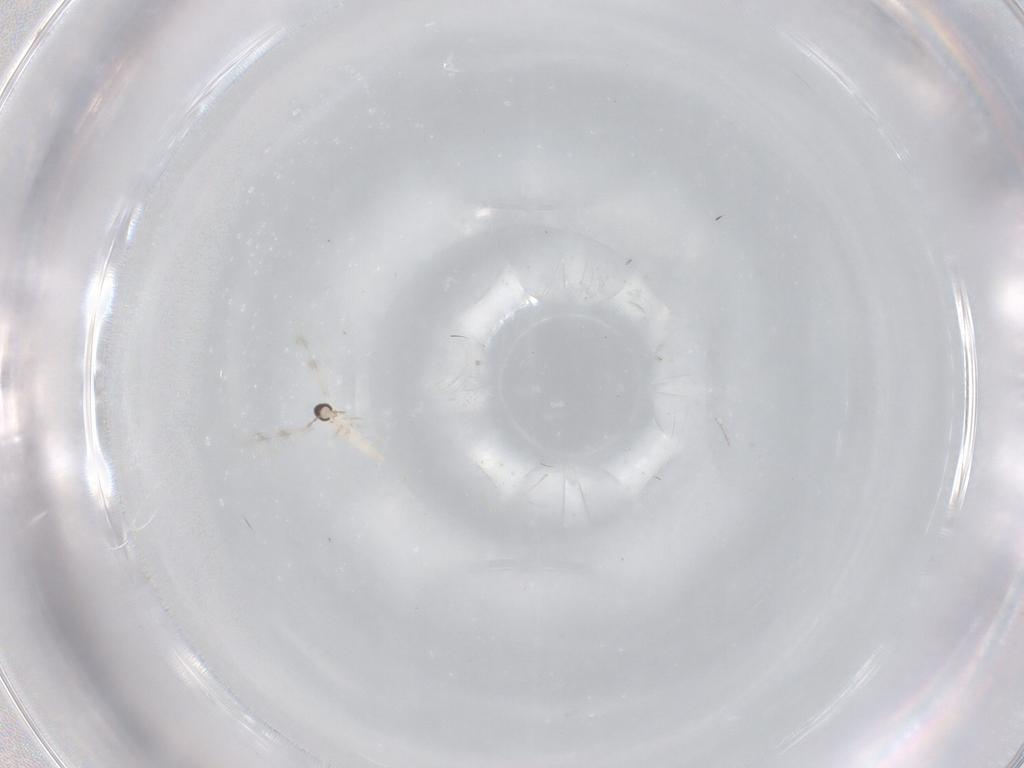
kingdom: Animalia
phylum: Arthropoda
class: Insecta
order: Diptera
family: Cecidomyiidae
